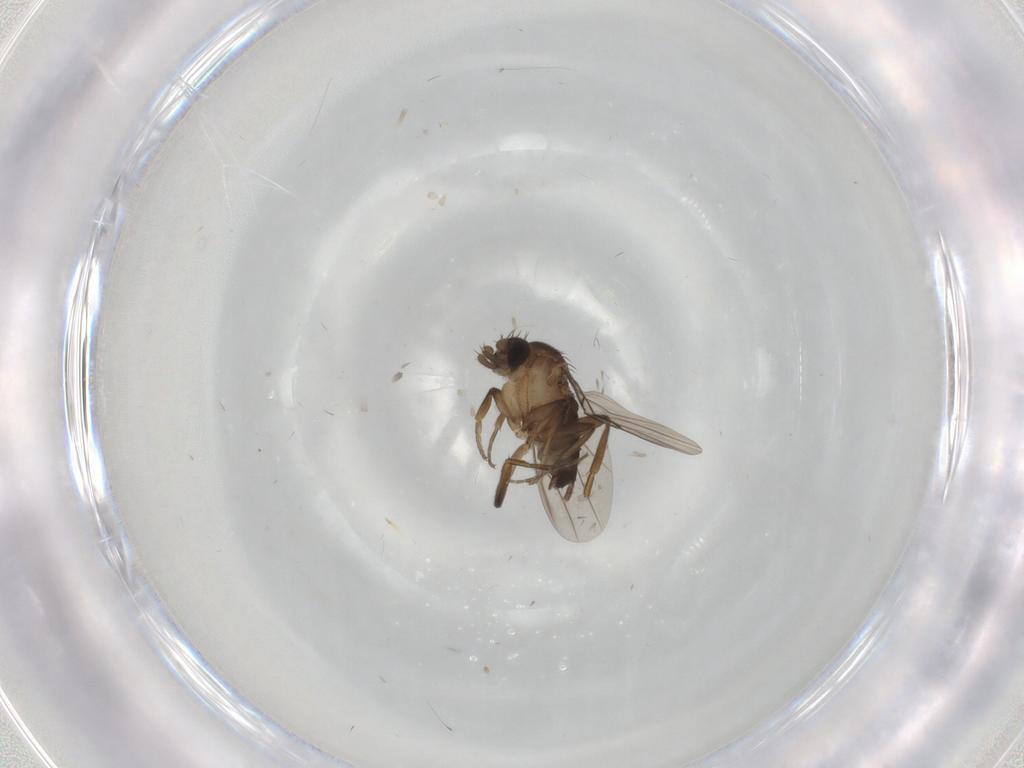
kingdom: Animalia
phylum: Arthropoda
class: Insecta
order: Diptera
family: Phoridae
